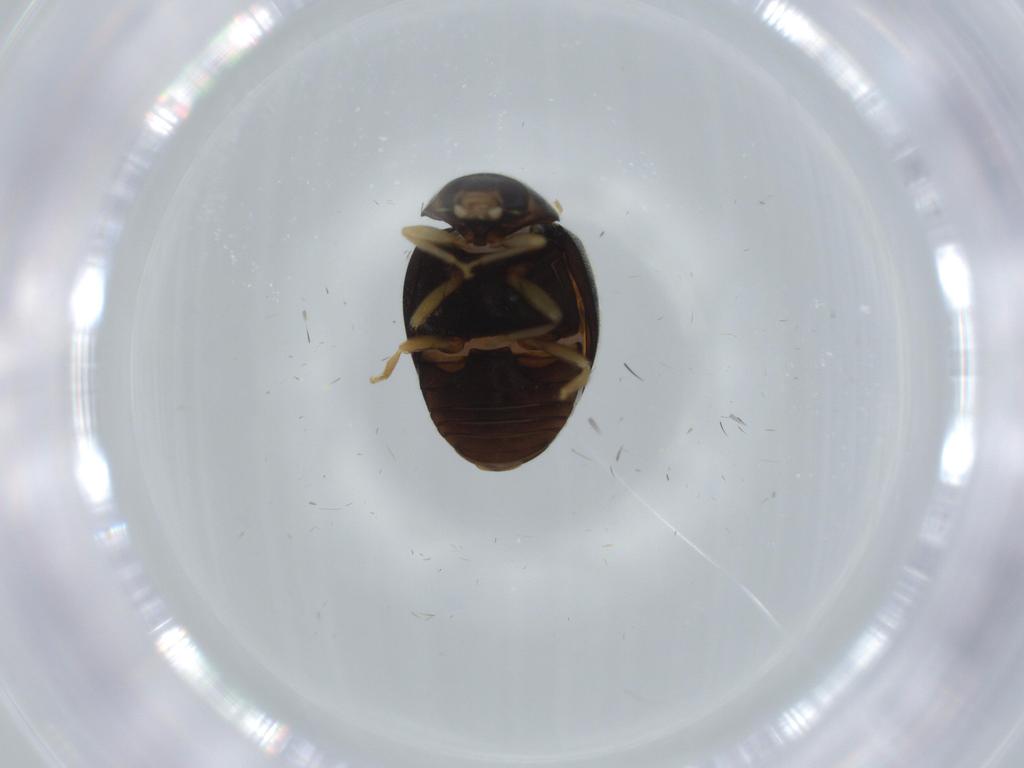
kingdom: Animalia
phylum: Arthropoda
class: Insecta
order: Coleoptera
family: Coccinellidae
